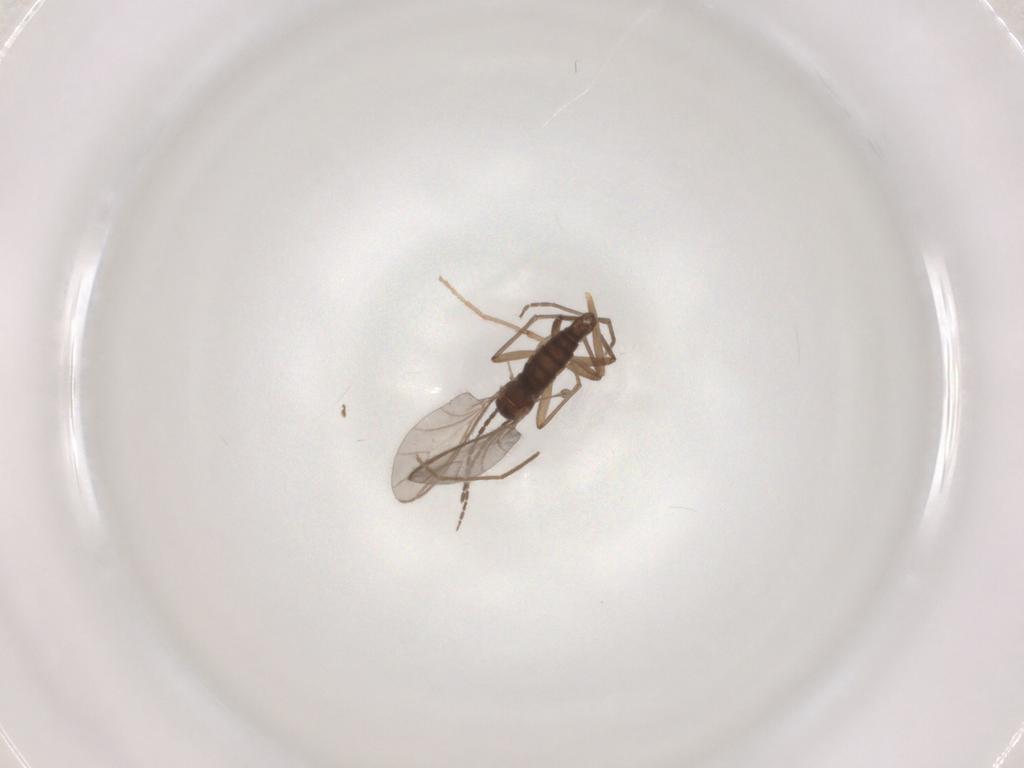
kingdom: Animalia
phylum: Arthropoda
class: Insecta
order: Diptera
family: Sciaridae
